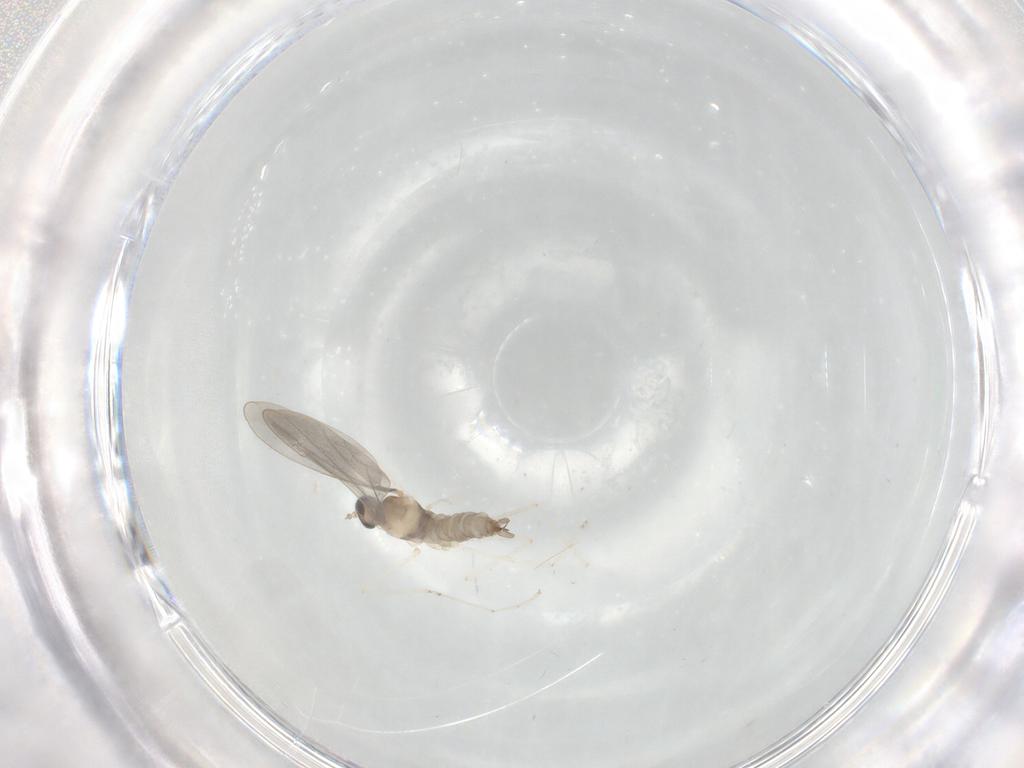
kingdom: Animalia
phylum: Arthropoda
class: Insecta
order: Diptera
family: Cecidomyiidae
